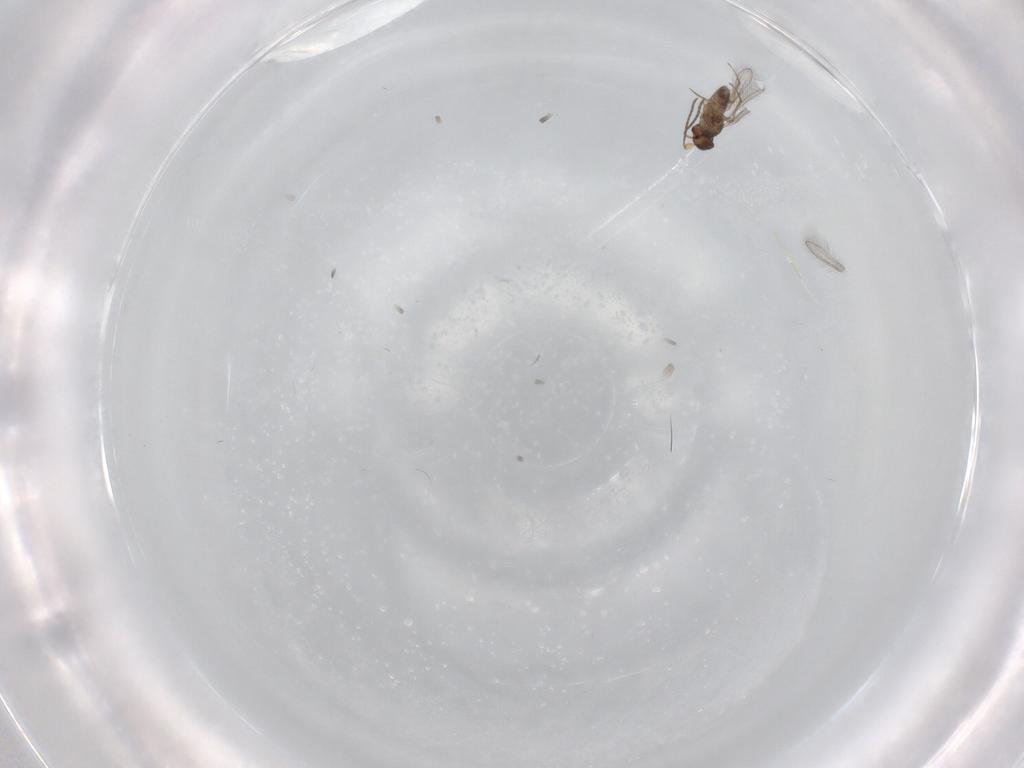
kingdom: Animalia
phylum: Arthropoda
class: Insecta
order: Hymenoptera
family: Mymaridae
